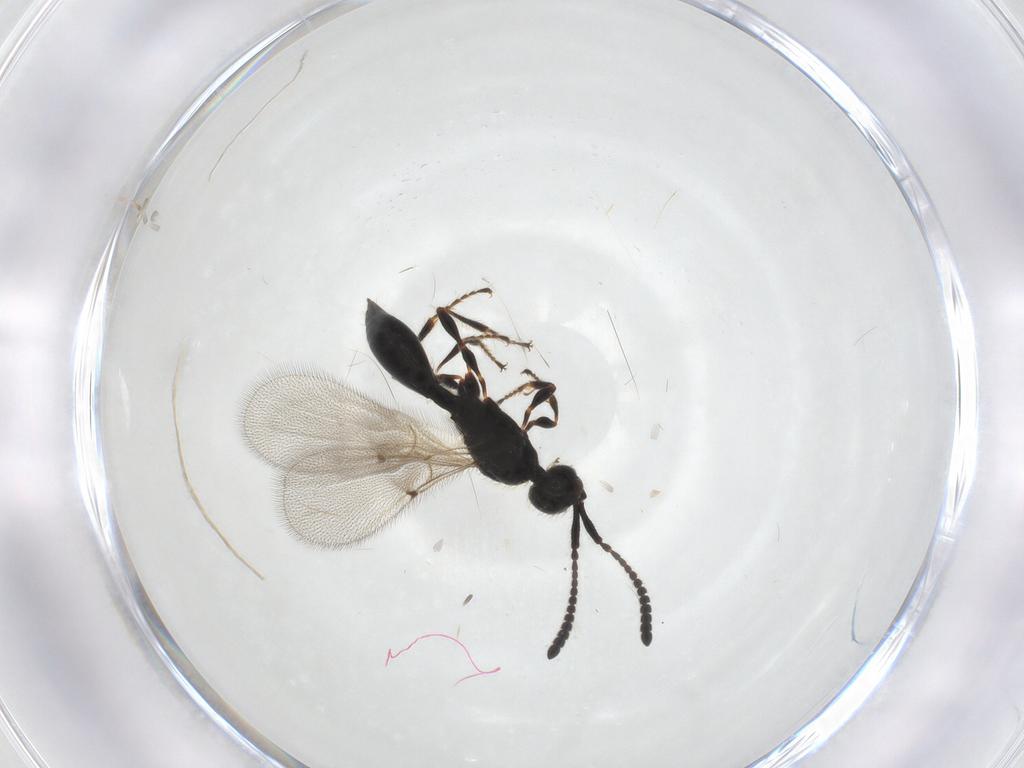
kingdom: Animalia
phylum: Arthropoda
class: Insecta
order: Hymenoptera
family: Diapriidae
